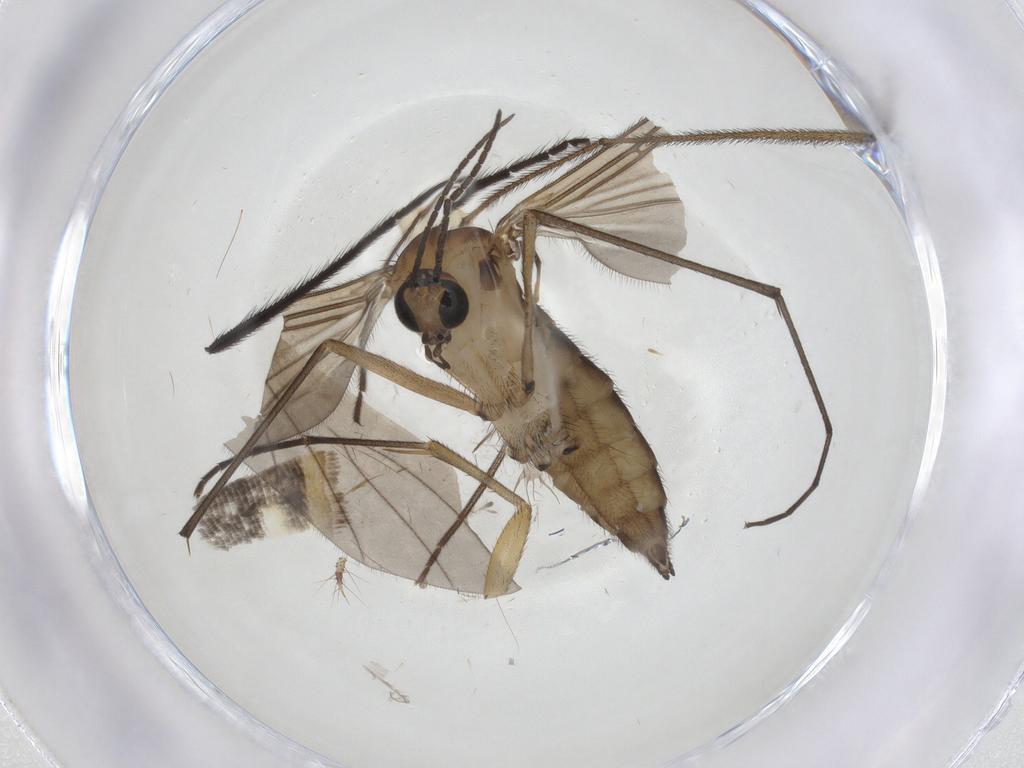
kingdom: Animalia
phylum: Arthropoda
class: Insecta
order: Diptera
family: Sciaridae
